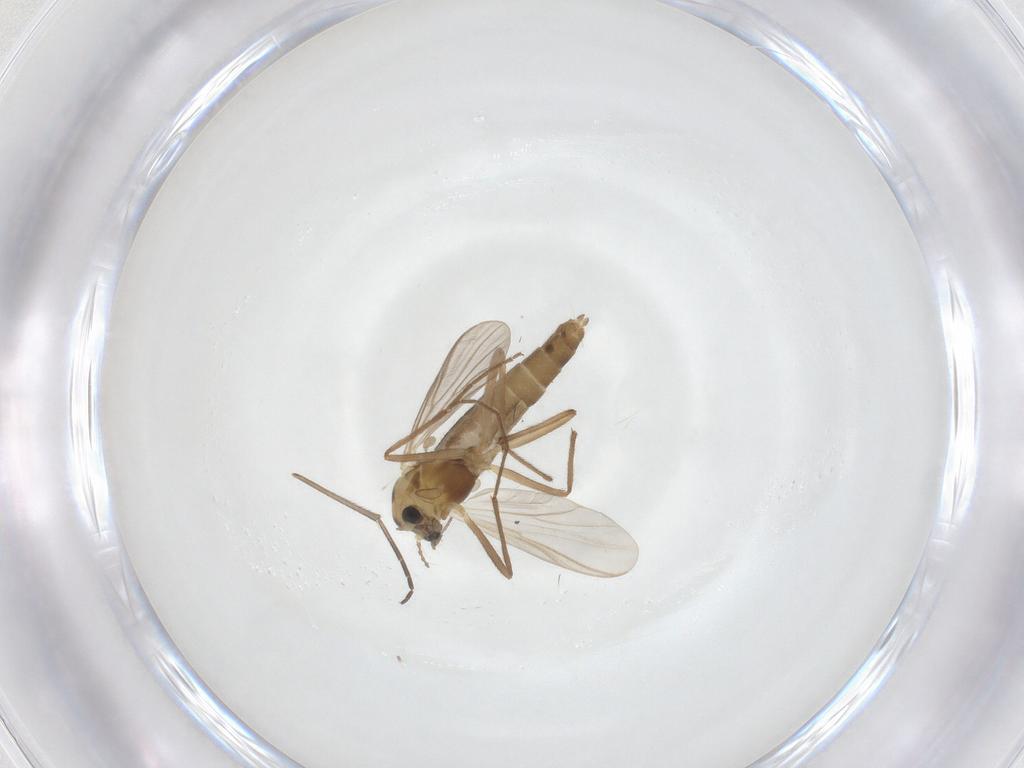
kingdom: Animalia
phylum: Arthropoda
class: Insecta
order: Diptera
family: Chironomidae
